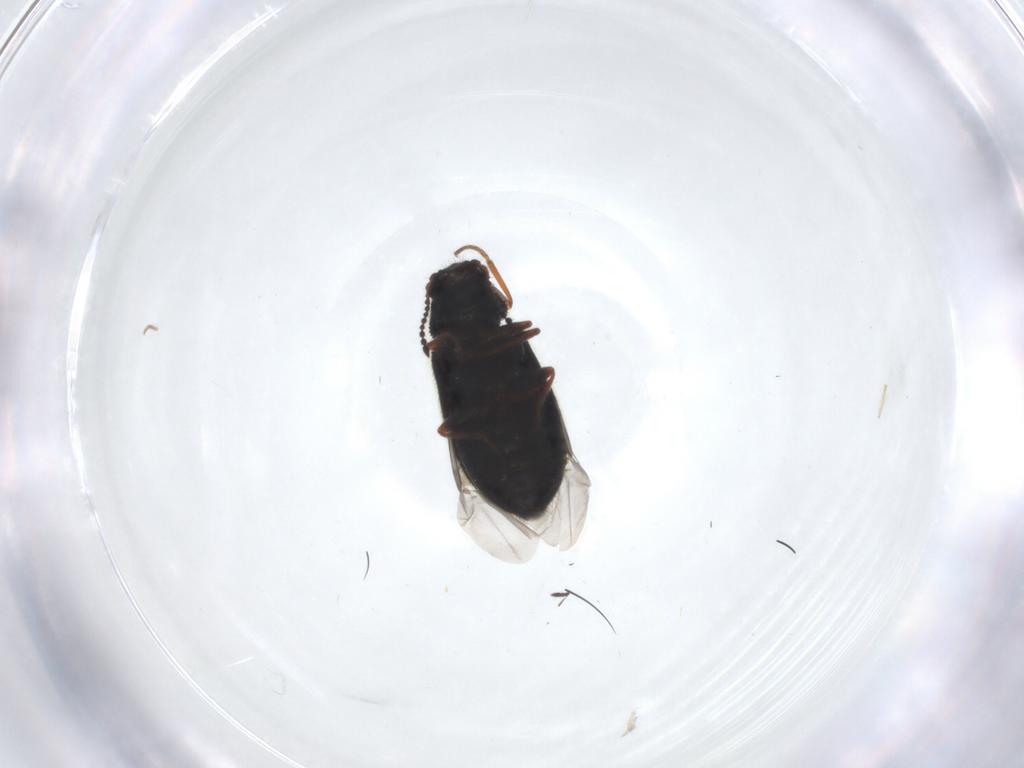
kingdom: Animalia
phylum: Arthropoda
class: Insecta
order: Coleoptera
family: Melyridae
